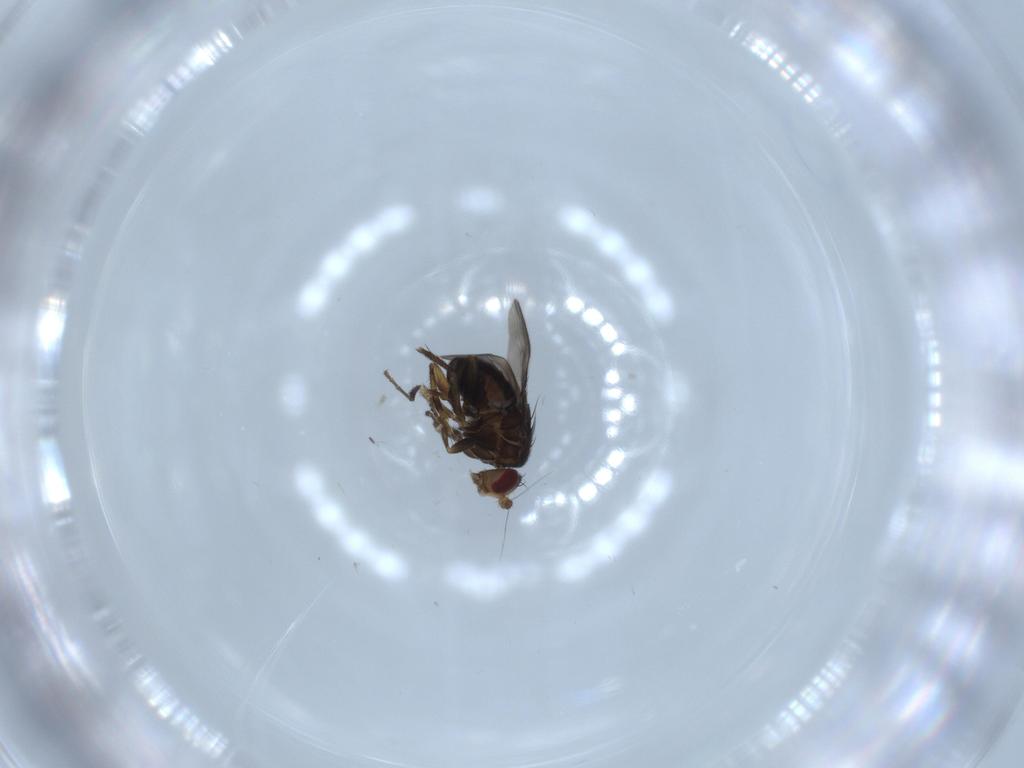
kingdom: Animalia
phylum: Arthropoda
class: Insecta
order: Diptera
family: Sphaeroceridae
